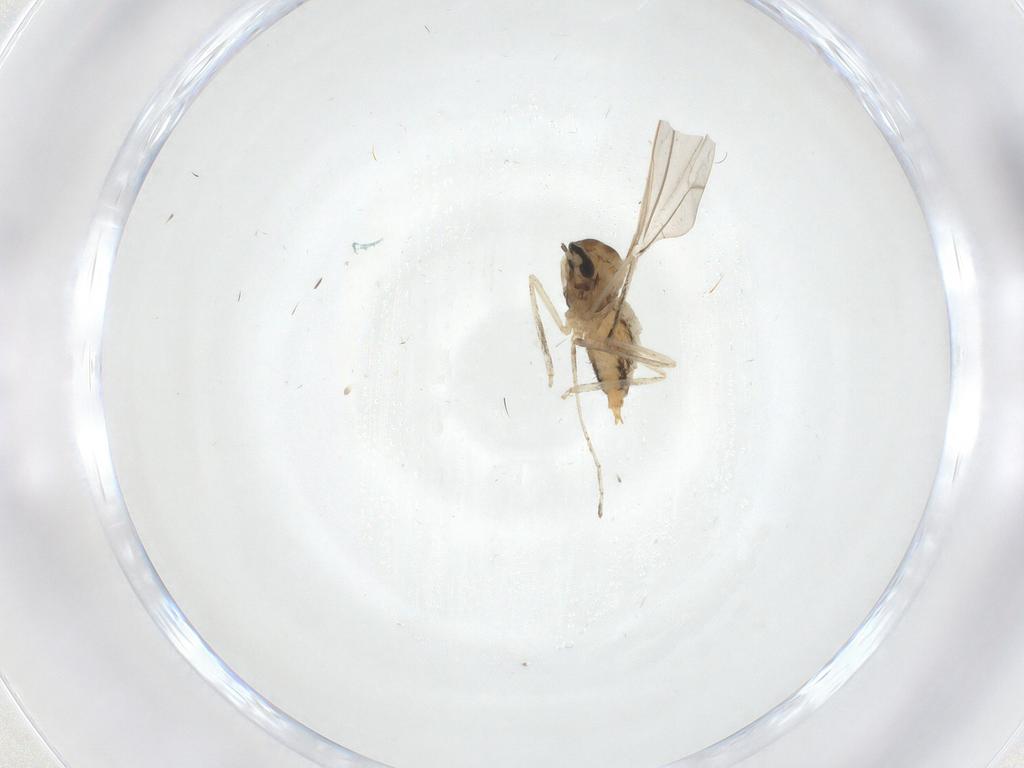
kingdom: Animalia
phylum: Arthropoda
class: Insecta
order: Diptera
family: Cecidomyiidae
